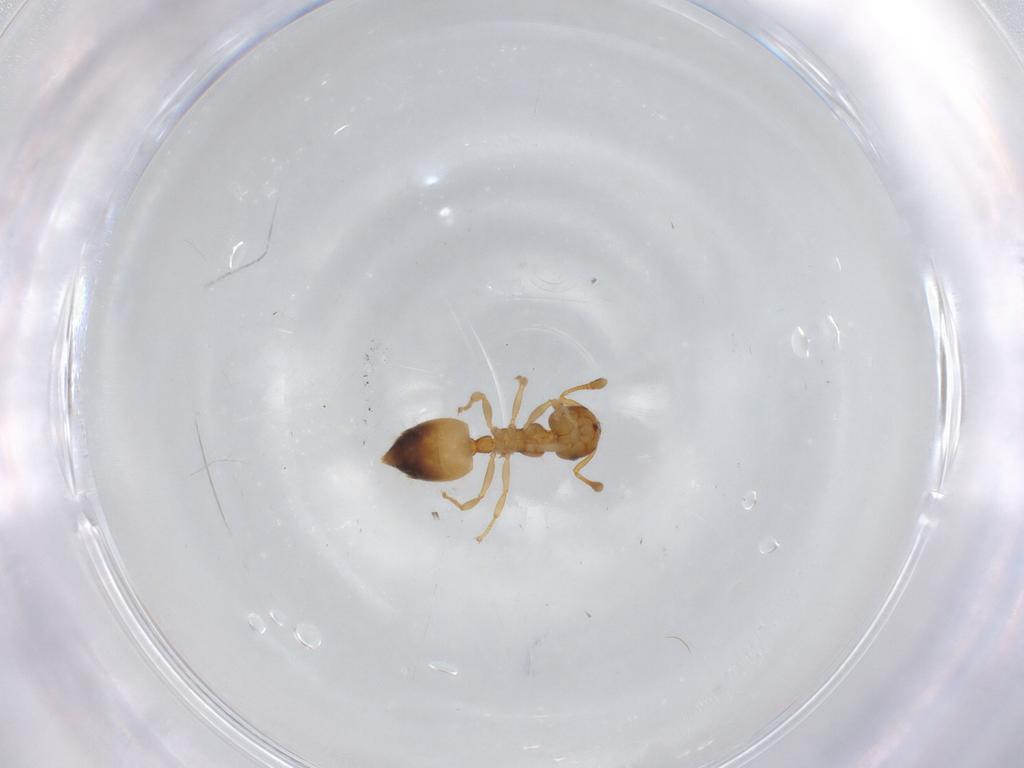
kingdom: Animalia
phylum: Arthropoda
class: Insecta
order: Hymenoptera
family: Formicidae
